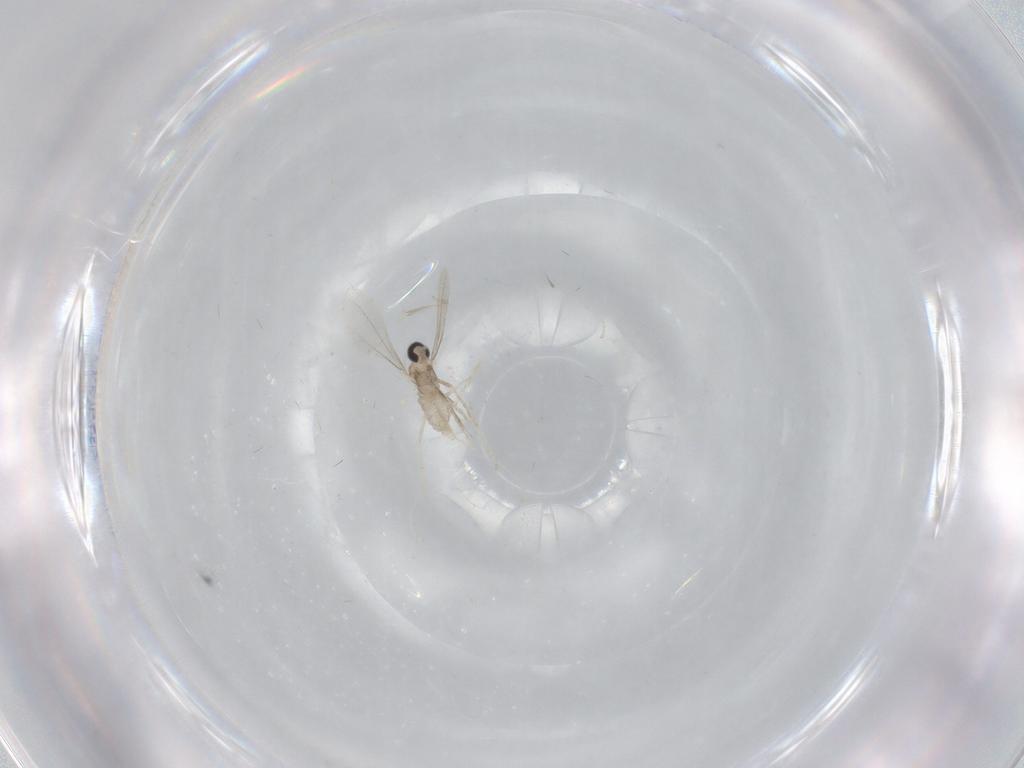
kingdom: Animalia
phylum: Arthropoda
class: Insecta
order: Diptera
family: Cecidomyiidae
